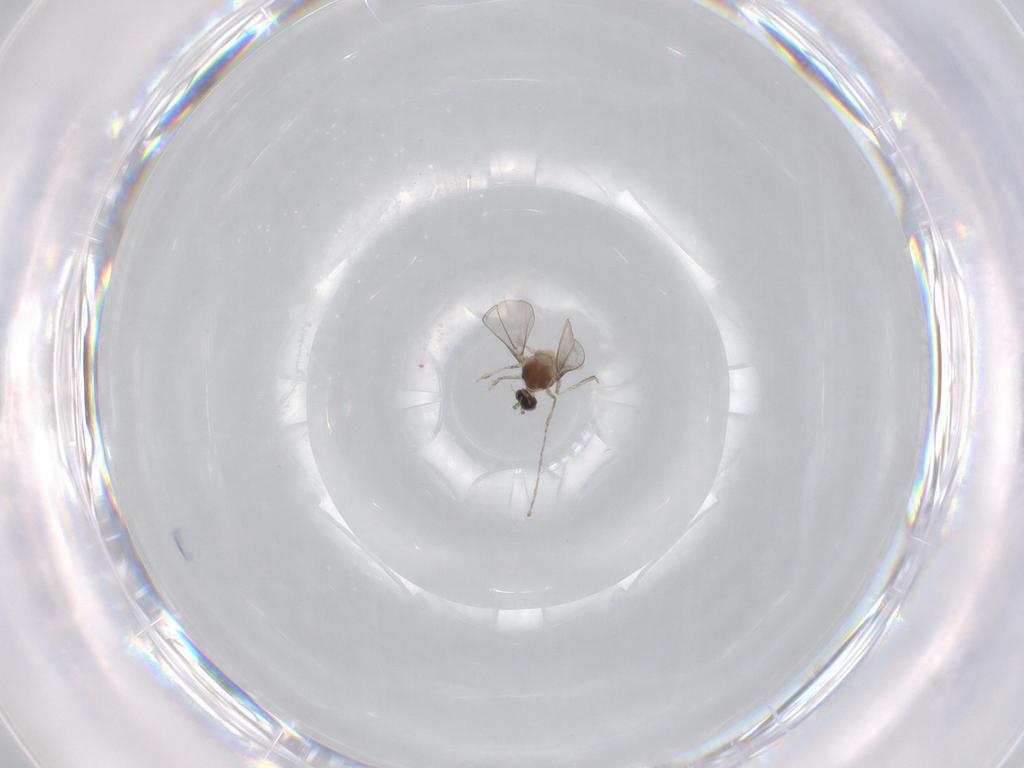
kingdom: Animalia
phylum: Arthropoda
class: Insecta
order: Diptera
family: Cecidomyiidae
